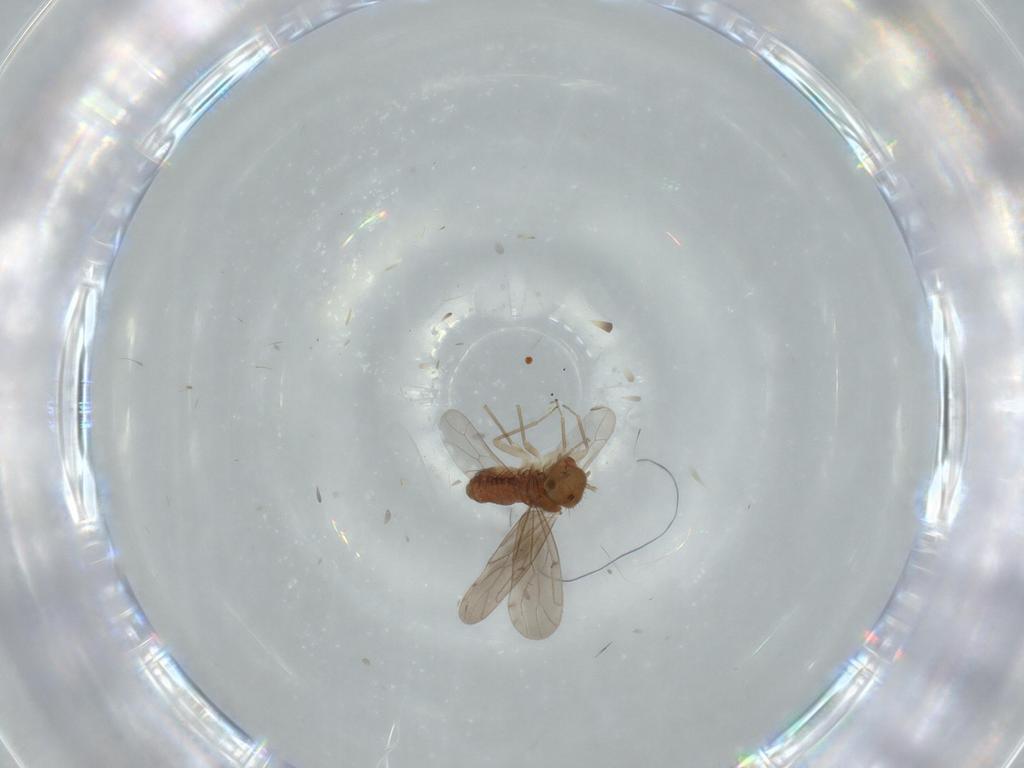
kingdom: Animalia
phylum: Arthropoda
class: Insecta
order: Psocodea
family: Ectopsocidae
